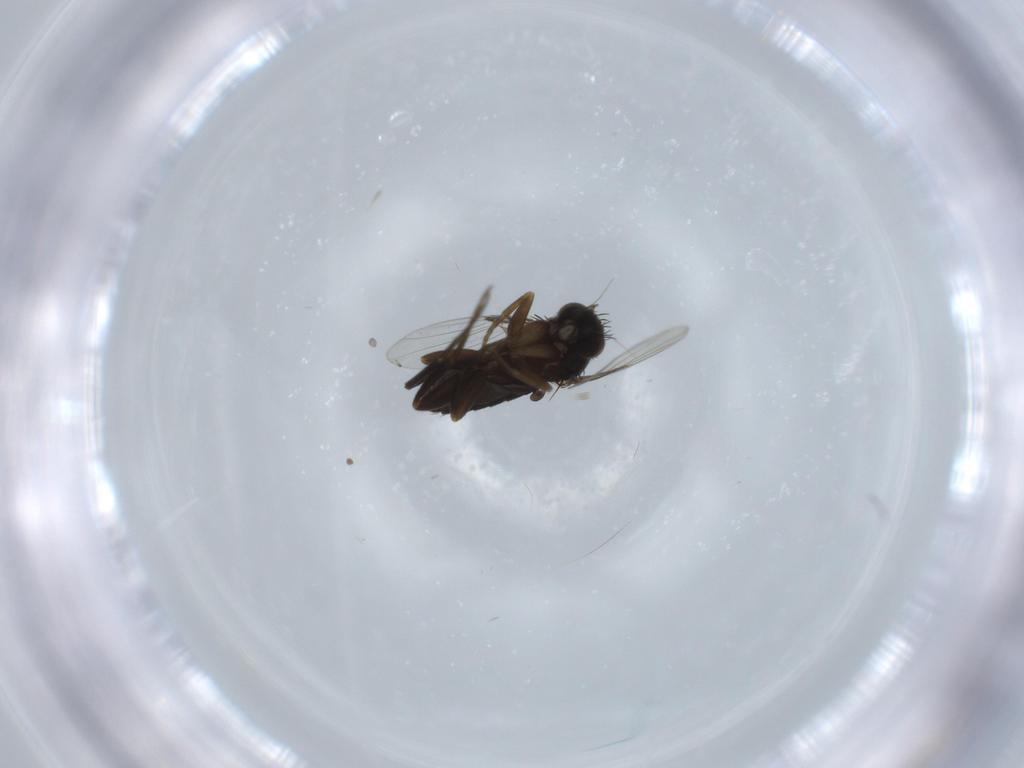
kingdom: Animalia
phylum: Arthropoda
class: Insecta
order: Diptera
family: Phoridae
